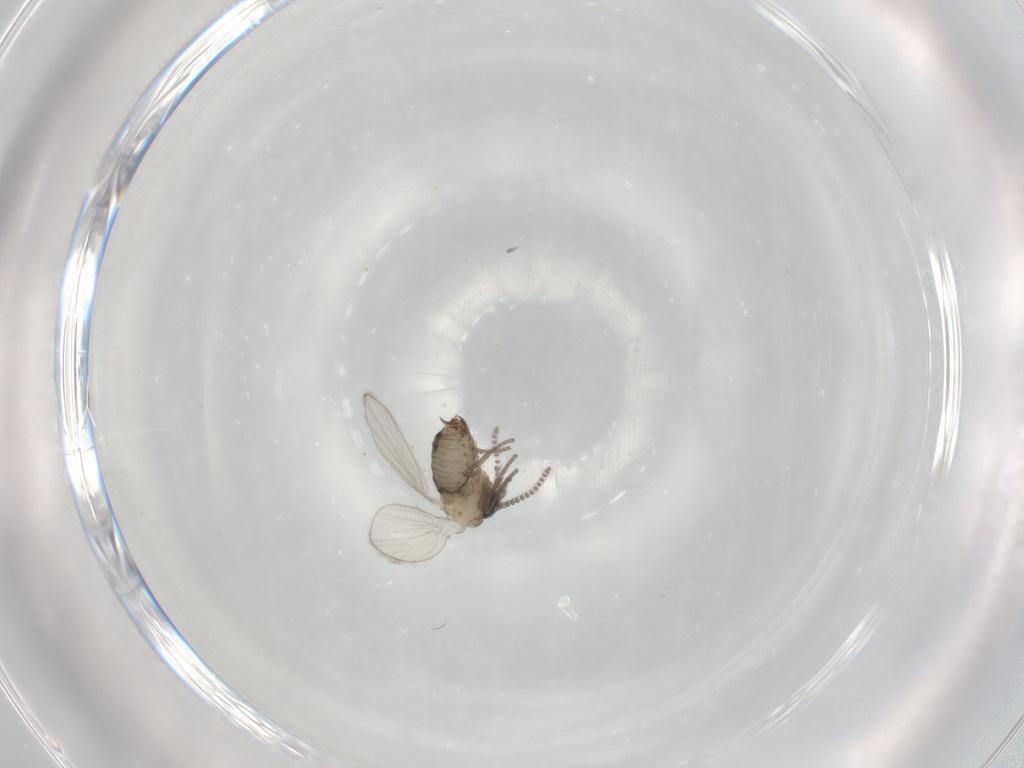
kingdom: Animalia
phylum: Arthropoda
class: Insecta
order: Diptera
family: Psychodidae
